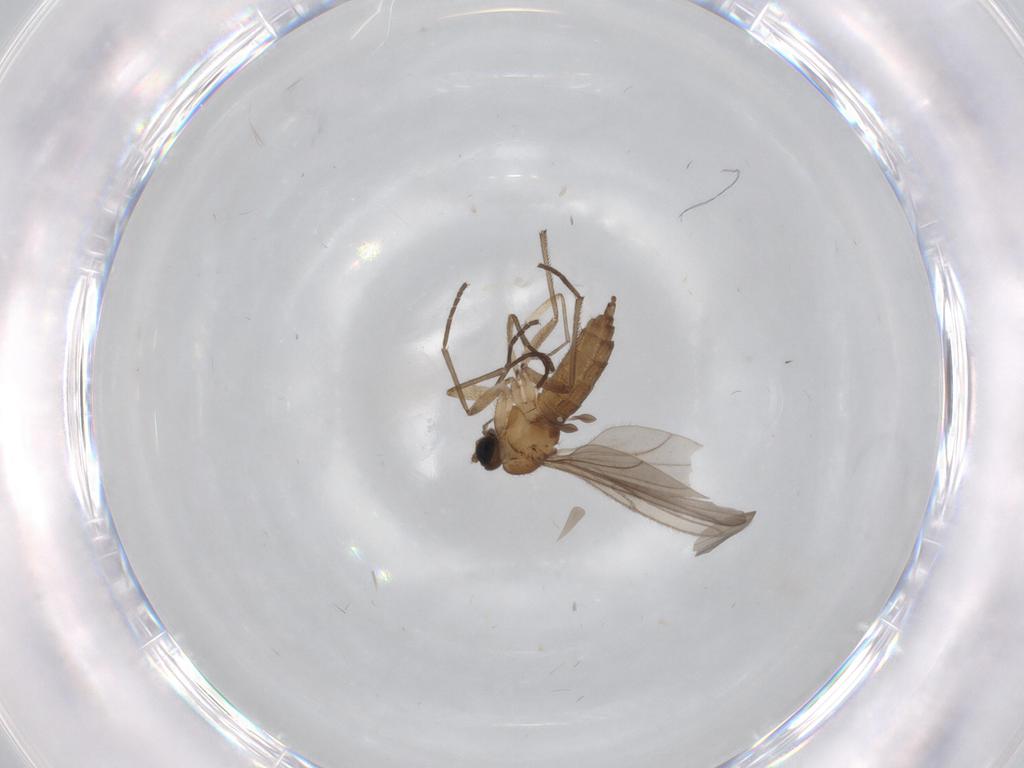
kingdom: Animalia
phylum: Arthropoda
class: Insecta
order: Diptera
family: Sciaridae
